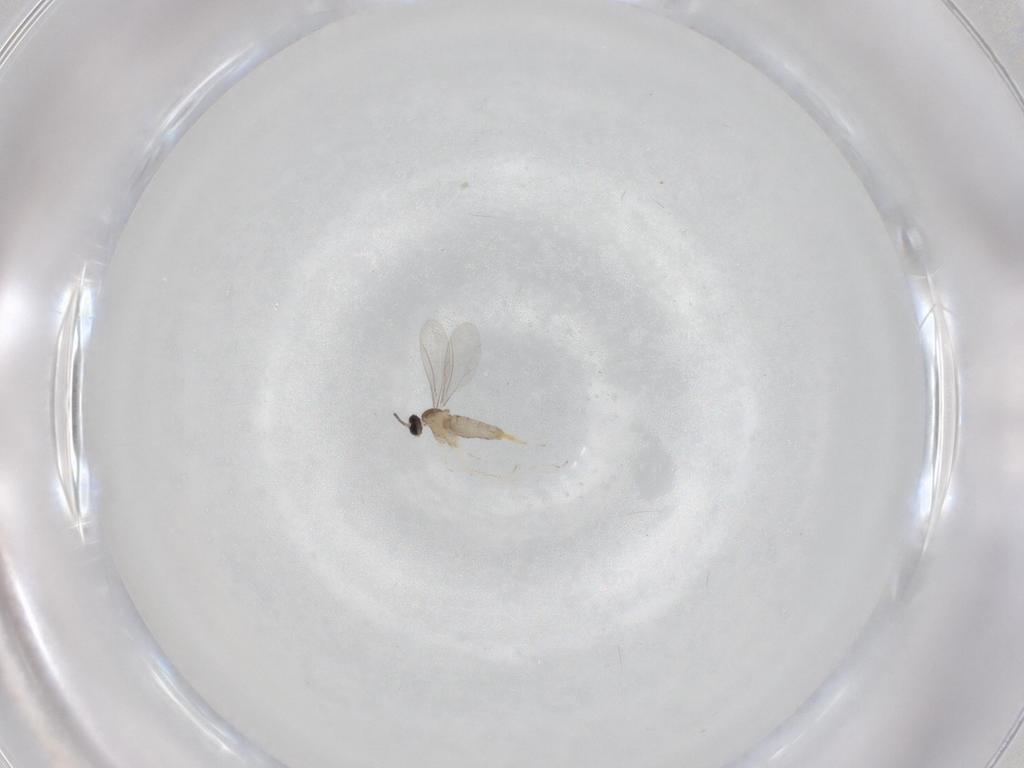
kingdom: Animalia
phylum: Arthropoda
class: Insecta
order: Diptera
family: Cecidomyiidae
